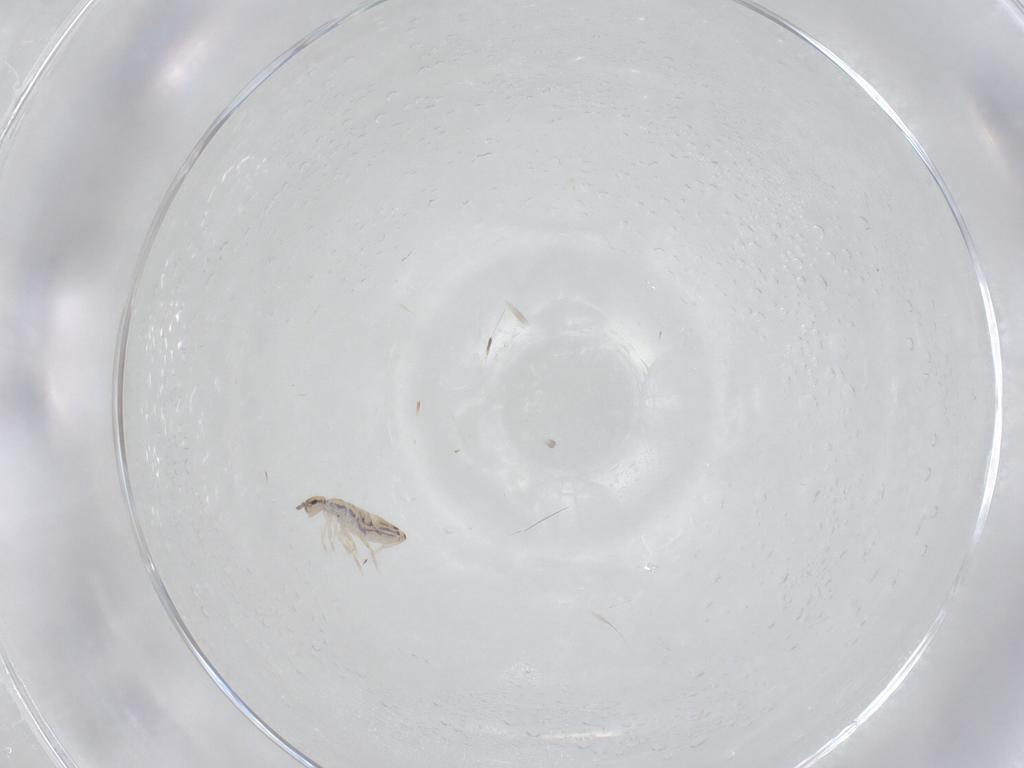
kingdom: Animalia
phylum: Arthropoda
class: Collembola
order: Entomobryomorpha
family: Entomobryidae
